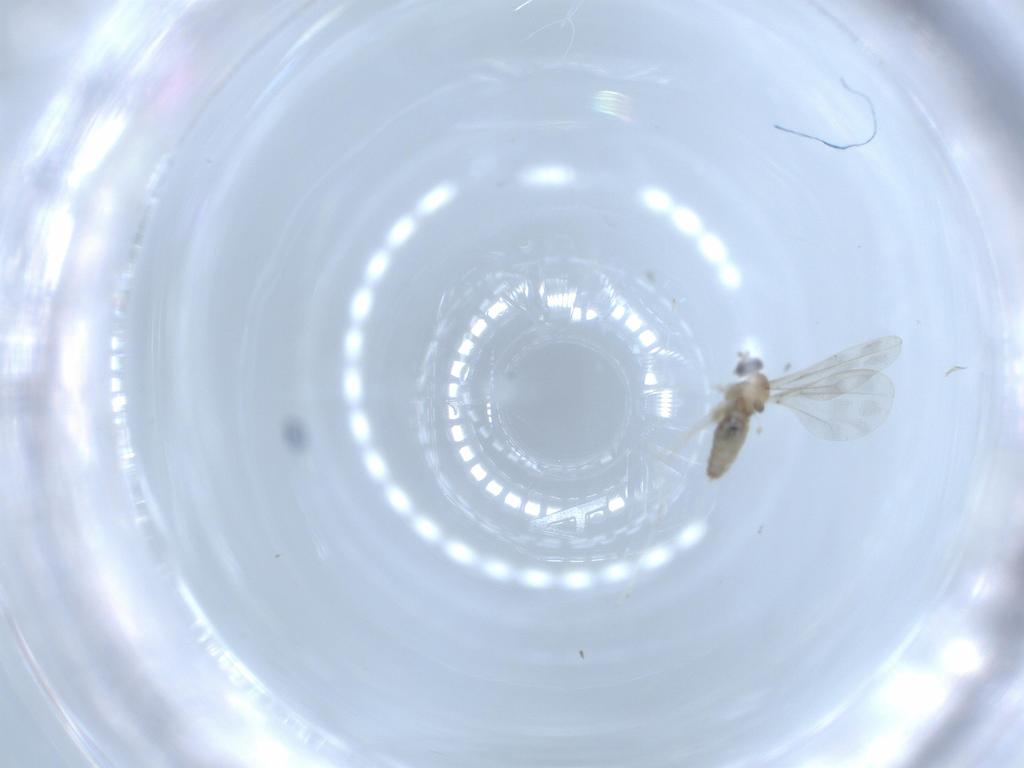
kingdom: Animalia
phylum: Arthropoda
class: Insecta
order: Diptera
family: Cecidomyiidae
